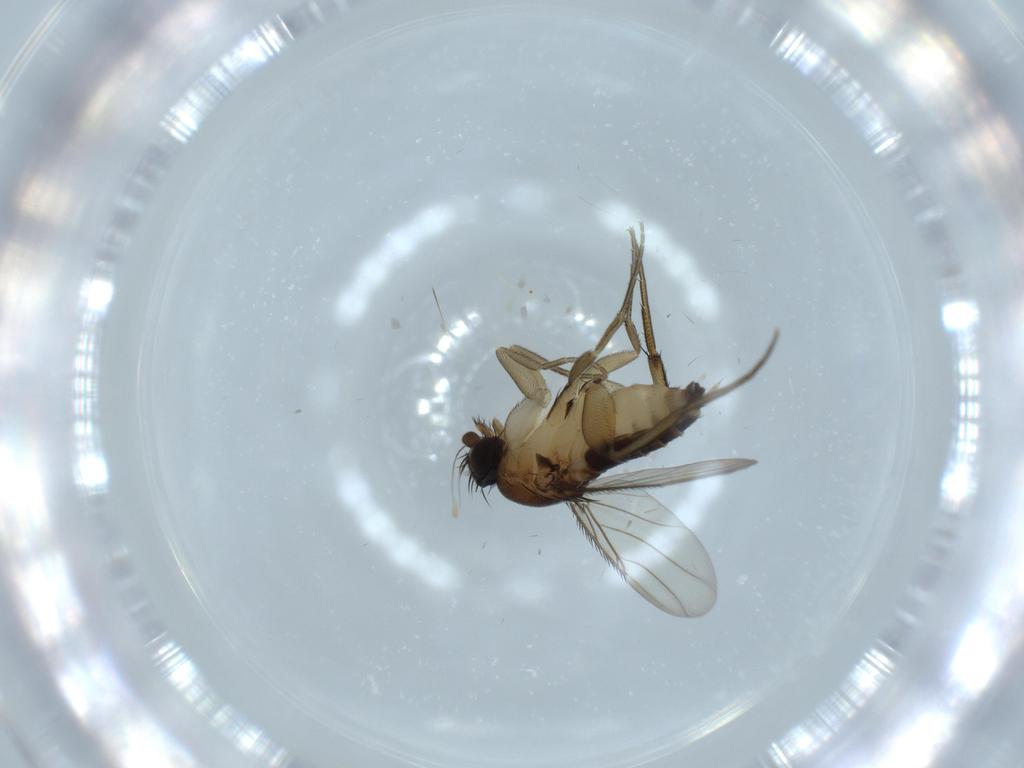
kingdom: Animalia
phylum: Arthropoda
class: Insecta
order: Diptera
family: Phoridae
